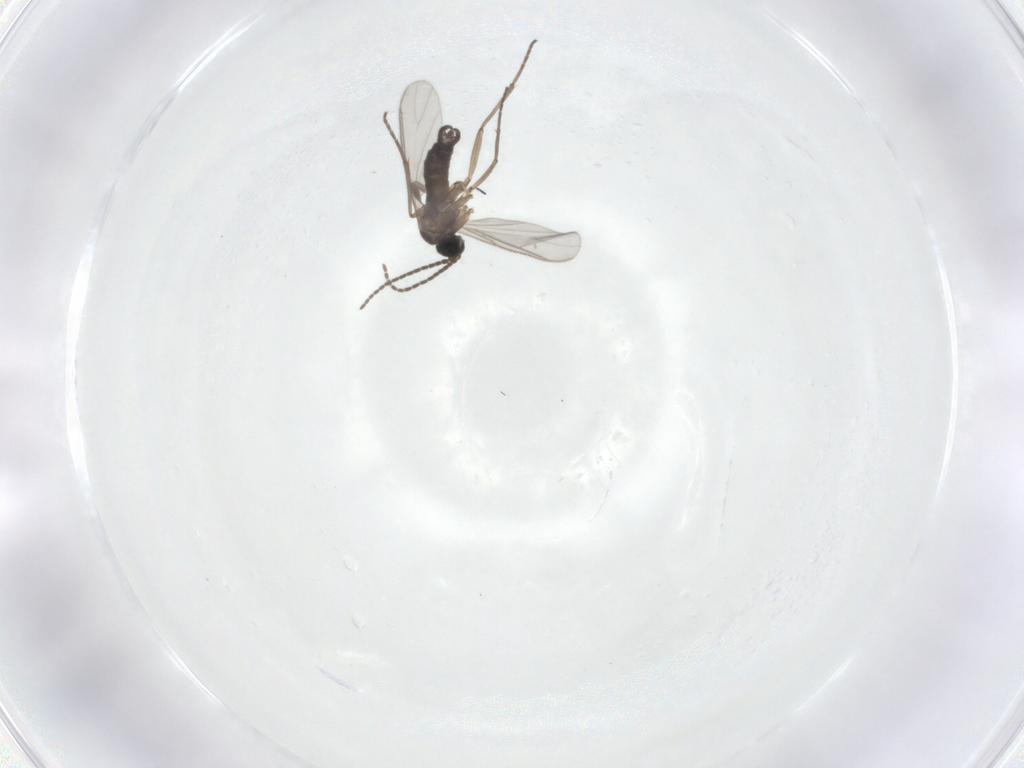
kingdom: Animalia
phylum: Arthropoda
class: Insecta
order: Diptera
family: Sciaridae
